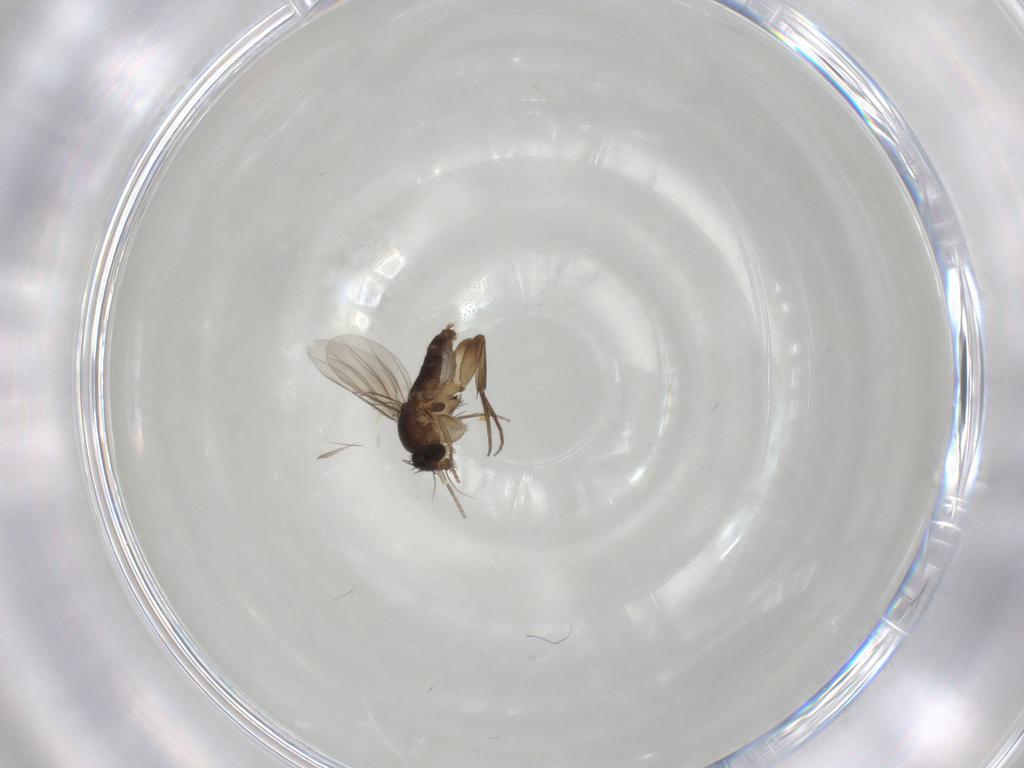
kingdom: Animalia
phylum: Arthropoda
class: Insecta
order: Diptera
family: Phoridae
